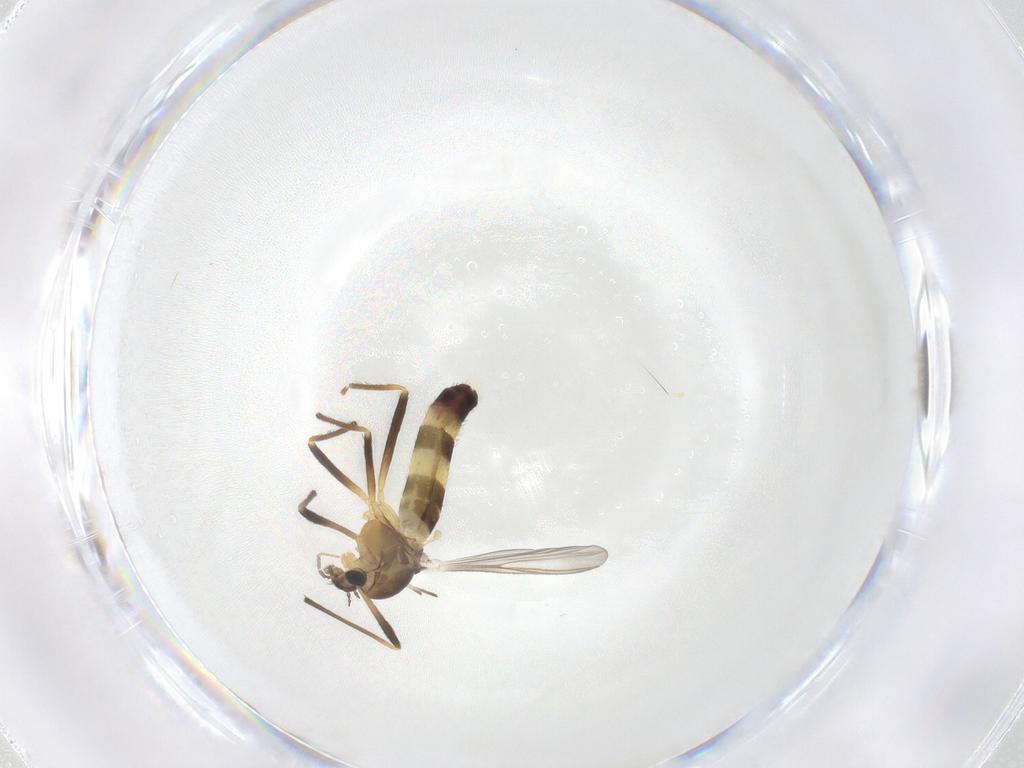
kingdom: Animalia
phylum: Arthropoda
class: Insecta
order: Diptera
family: Chironomidae
